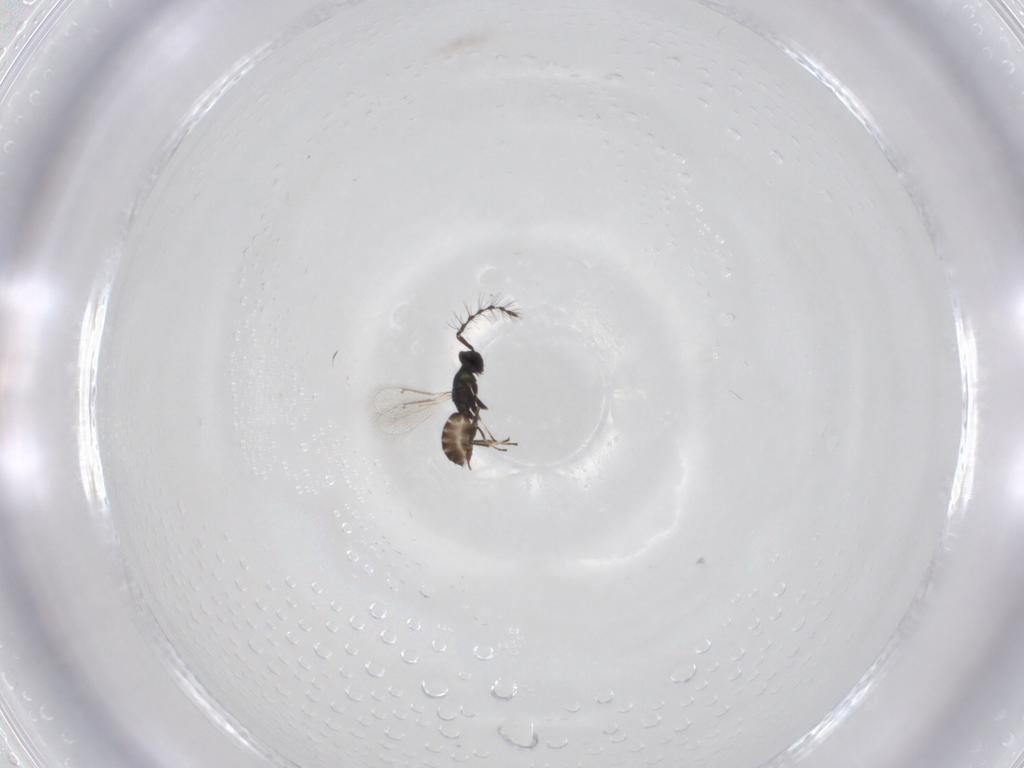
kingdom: Animalia
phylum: Arthropoda
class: Insecta
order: Hymenoptera
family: Eulophidae
